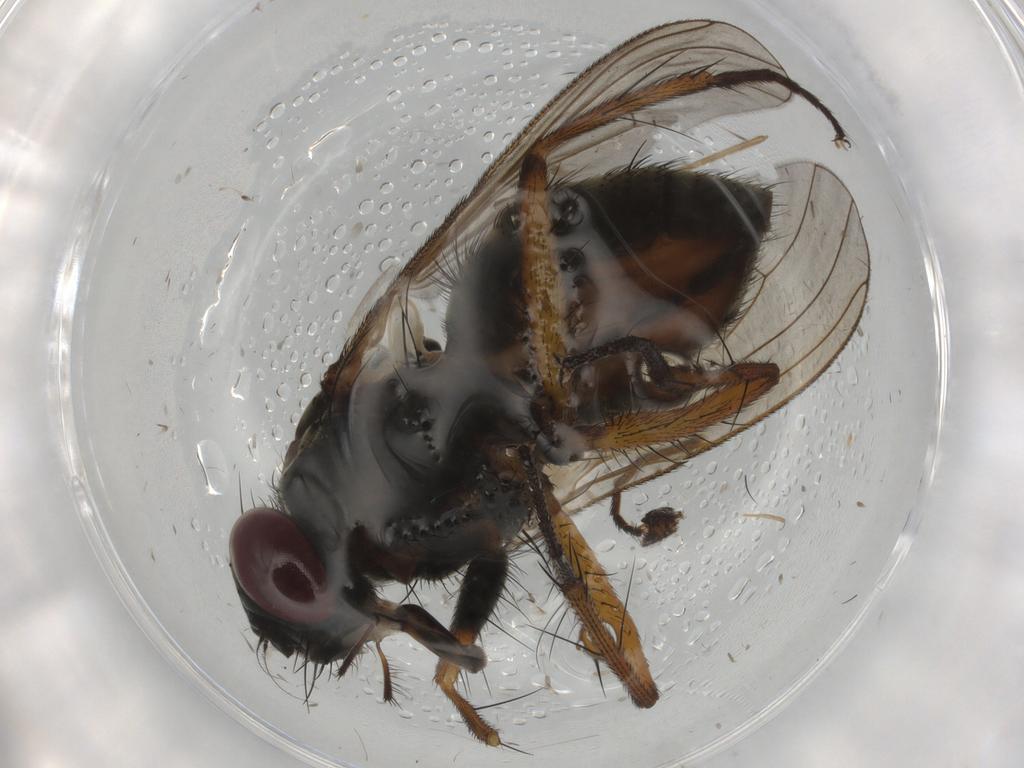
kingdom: Animalia
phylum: Arthropoda
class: Insecta
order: Diptera
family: Muscidae
